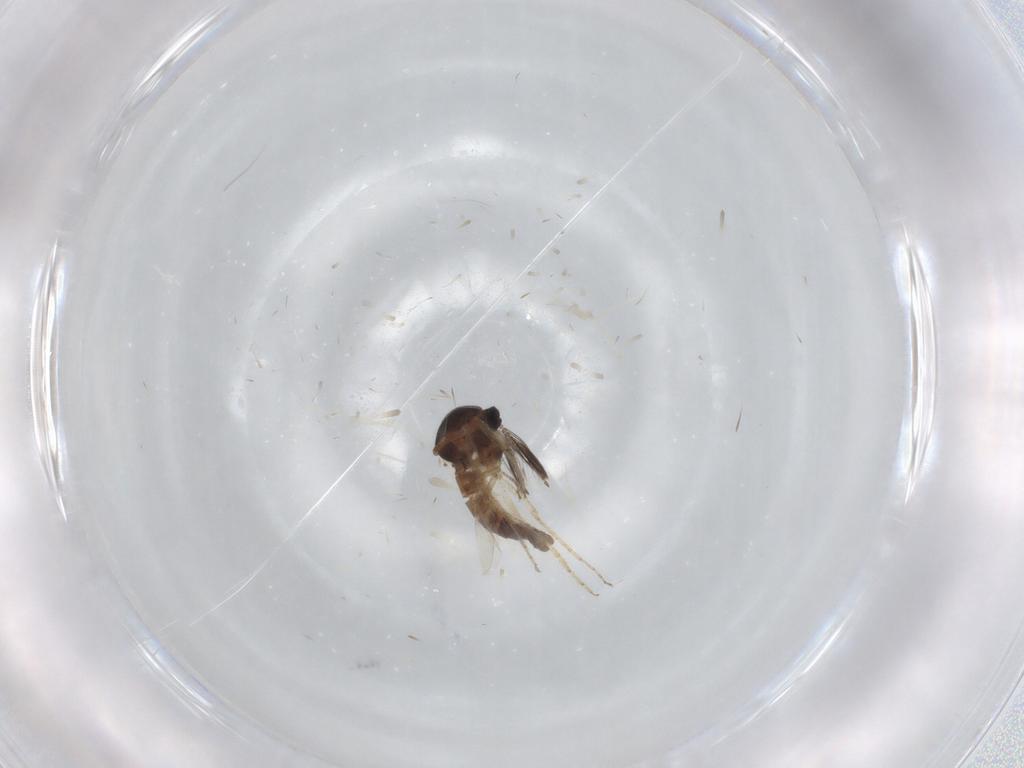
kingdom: Animalia
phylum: Arthropoda
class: Insecta
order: Diptera
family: Ceratopogonidae
